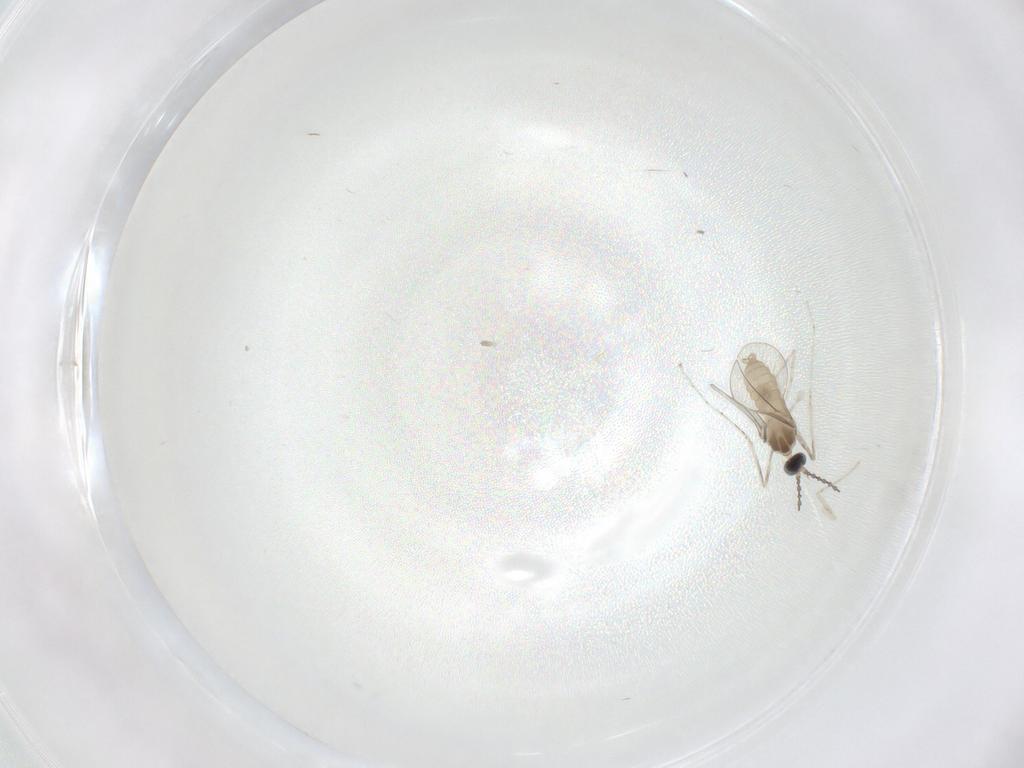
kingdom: Animalia
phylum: Arthropoda
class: Insecta
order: Diptera
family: Cecidomyiidae
